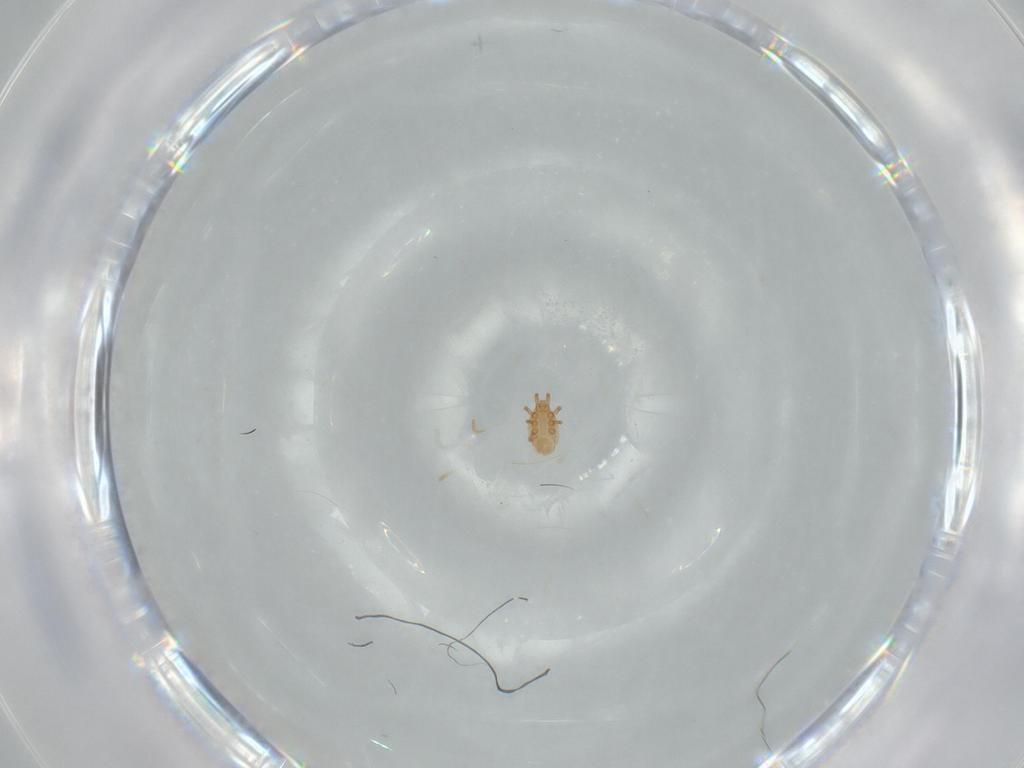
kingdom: Animalia
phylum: Arthropoda
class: Arachnida
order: Mesostigmata
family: Dinychidae
